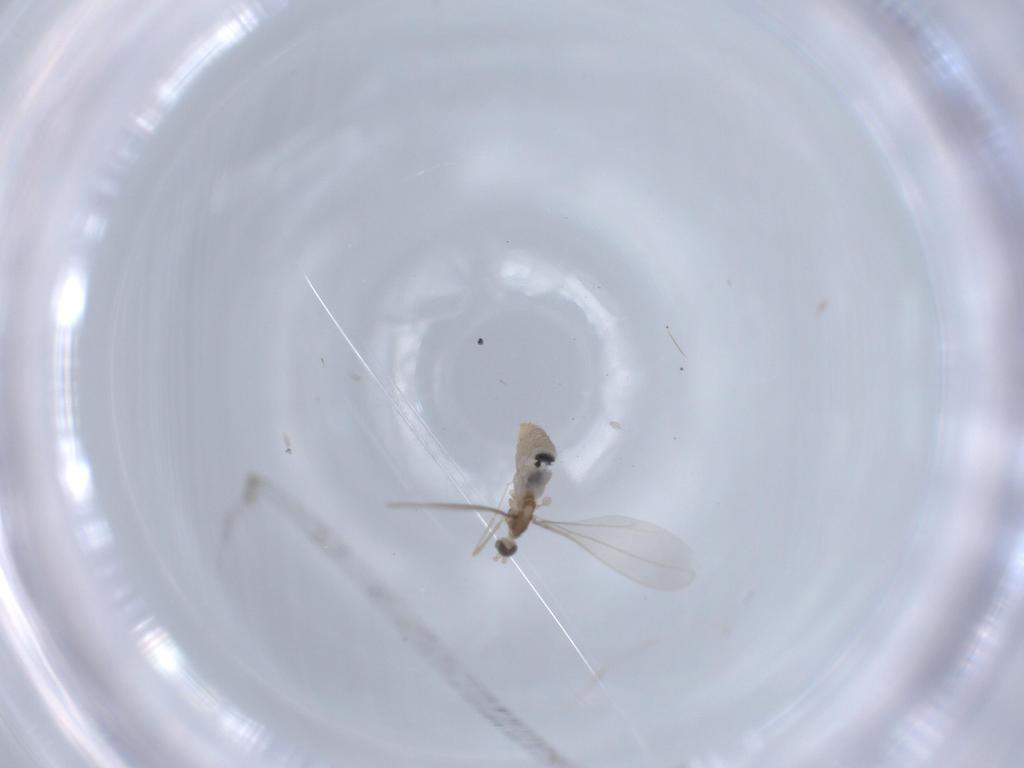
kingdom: Animalia
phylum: Arthropoda
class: Insecta
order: Diptera
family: Cecidomyiidae
